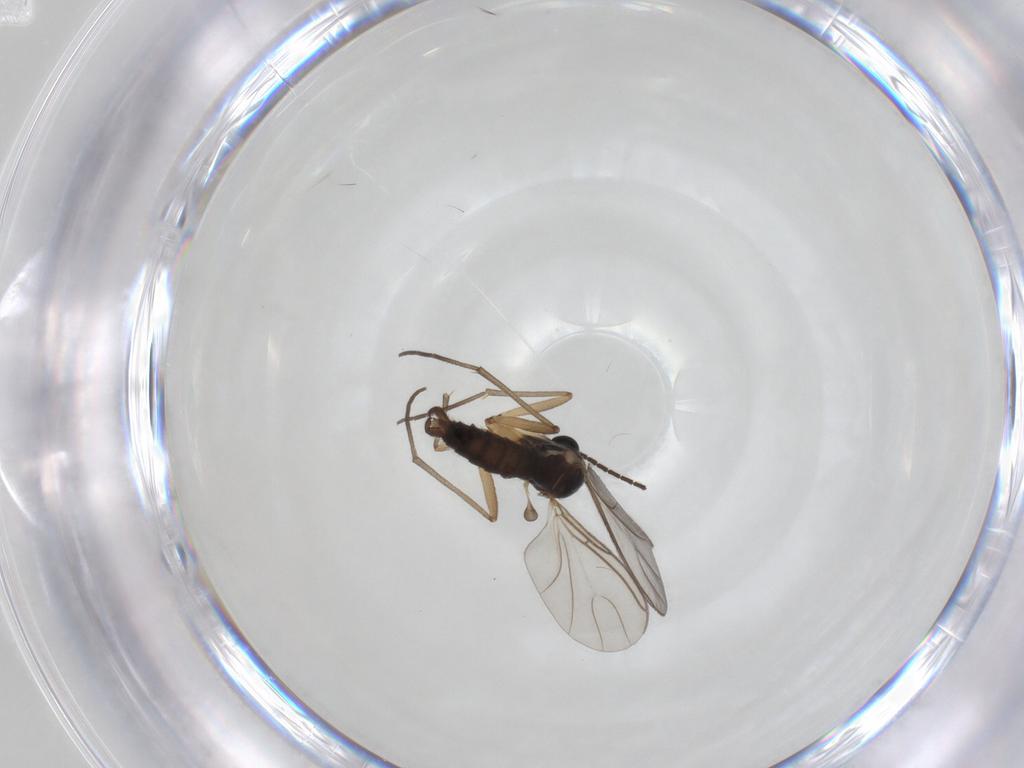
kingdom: Animalia
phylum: Arthropoda
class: Insecta
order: Diptera
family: Sciaridae
